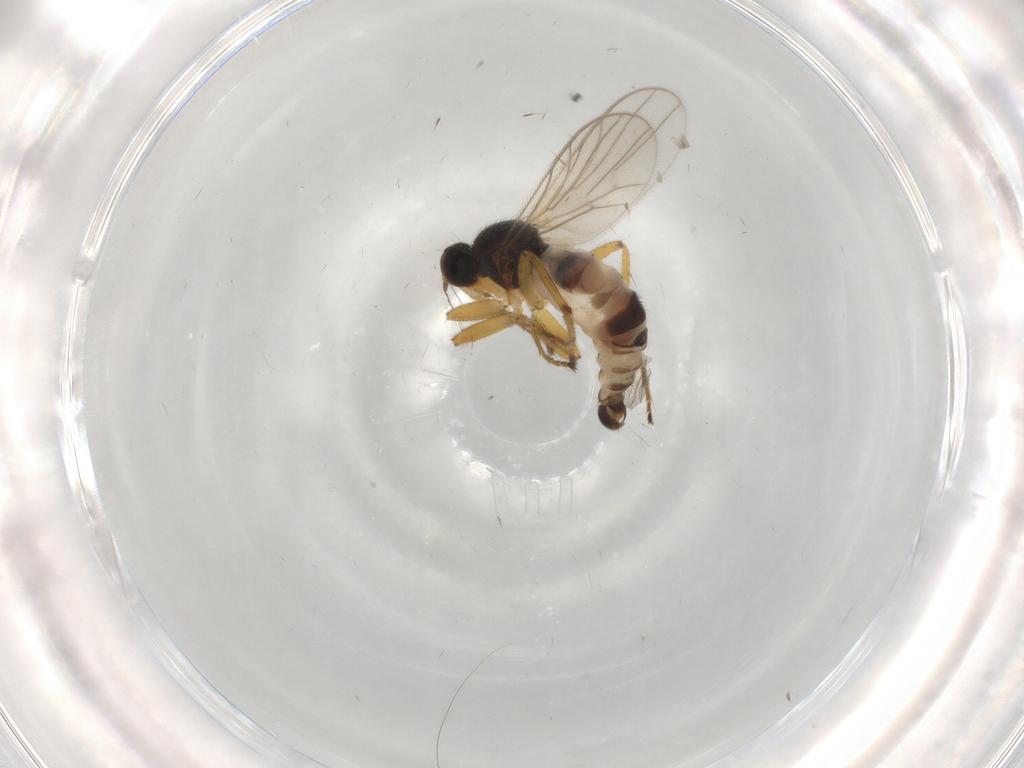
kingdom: Animalia
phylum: Arthropoda
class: Insecta
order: Diptera
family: Hybotidae
